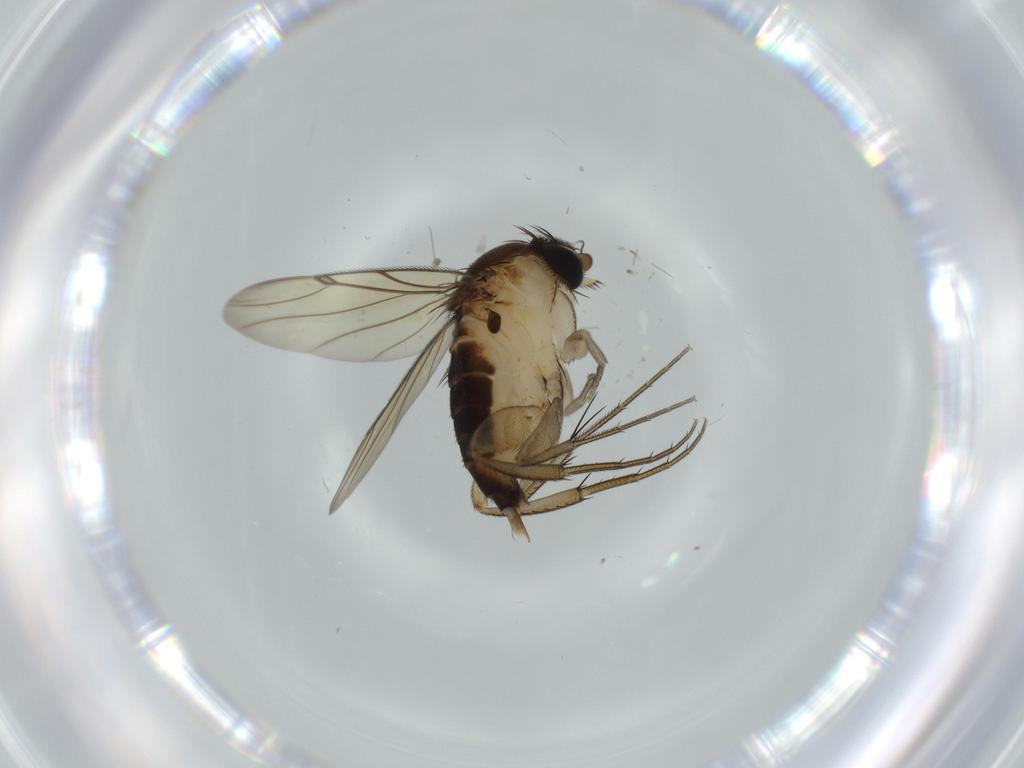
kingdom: Animalia
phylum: Arthropoda
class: Insecta
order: Diptera
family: Cecidomyiidae
